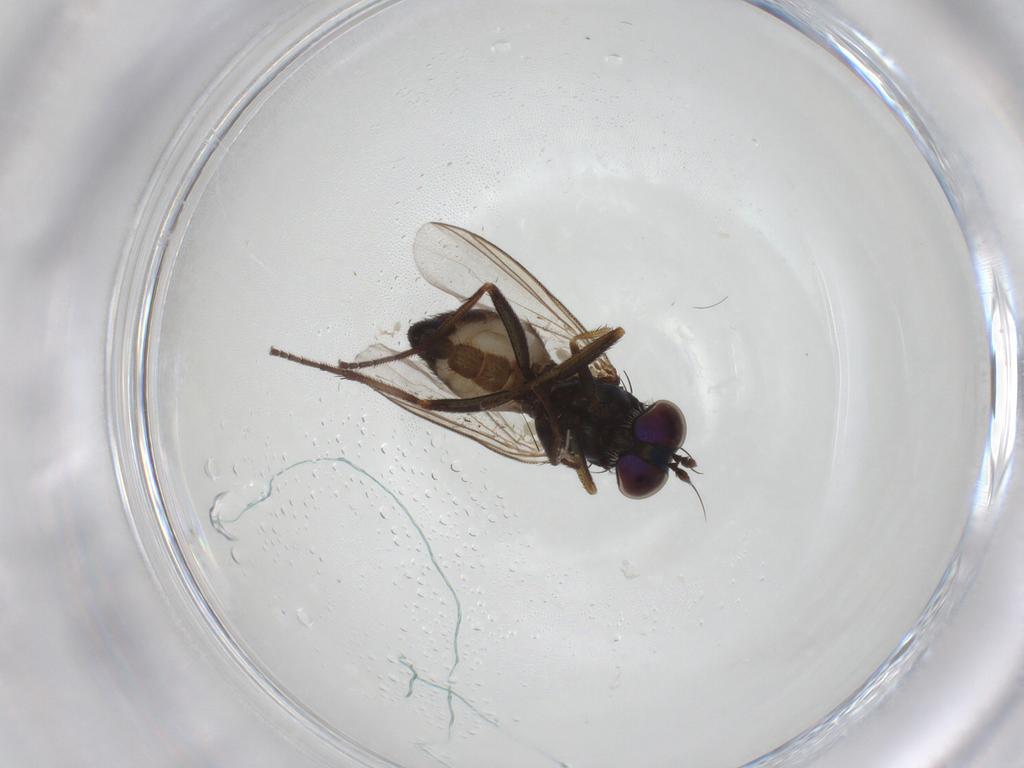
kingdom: Animalia
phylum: Arthropoda
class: Insecta
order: Diptera
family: Dolichopodidae
